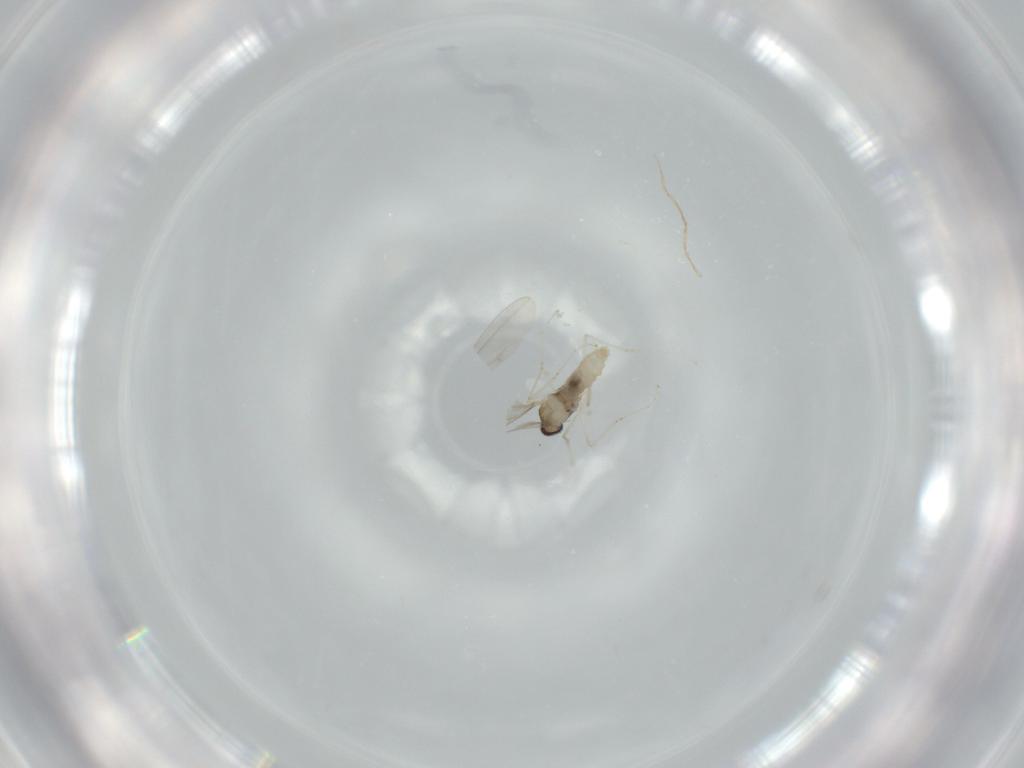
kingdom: Animalia
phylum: Arthropoda
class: Insecta
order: Diptera
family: Cecidomyiidae
